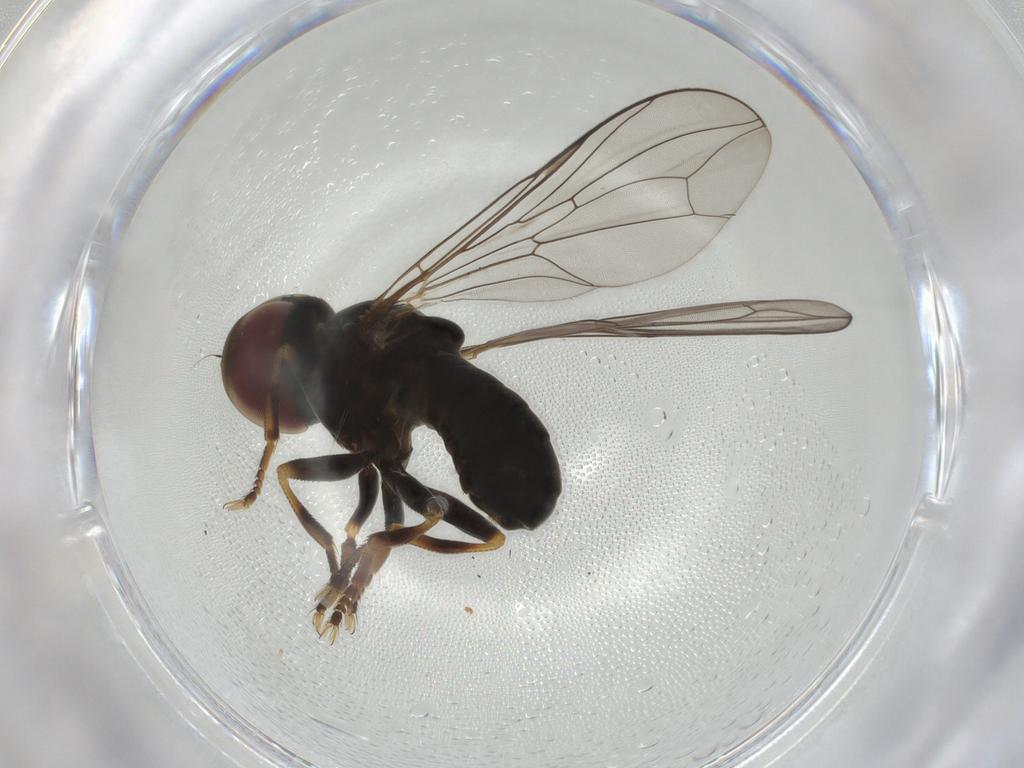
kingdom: Animalia
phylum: Arthropoda
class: Insecta
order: Diptera
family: Pipunculidae
